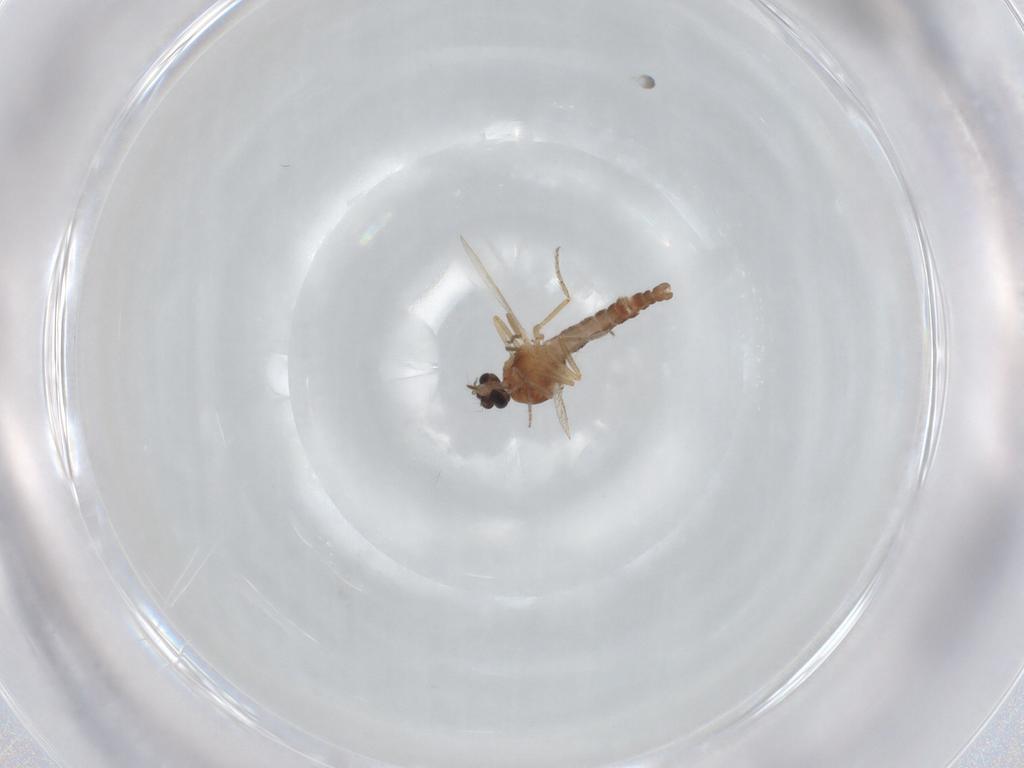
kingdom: Animalia
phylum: Arthropoda
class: Insecta
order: Diptera
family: Ceratopogonidae
